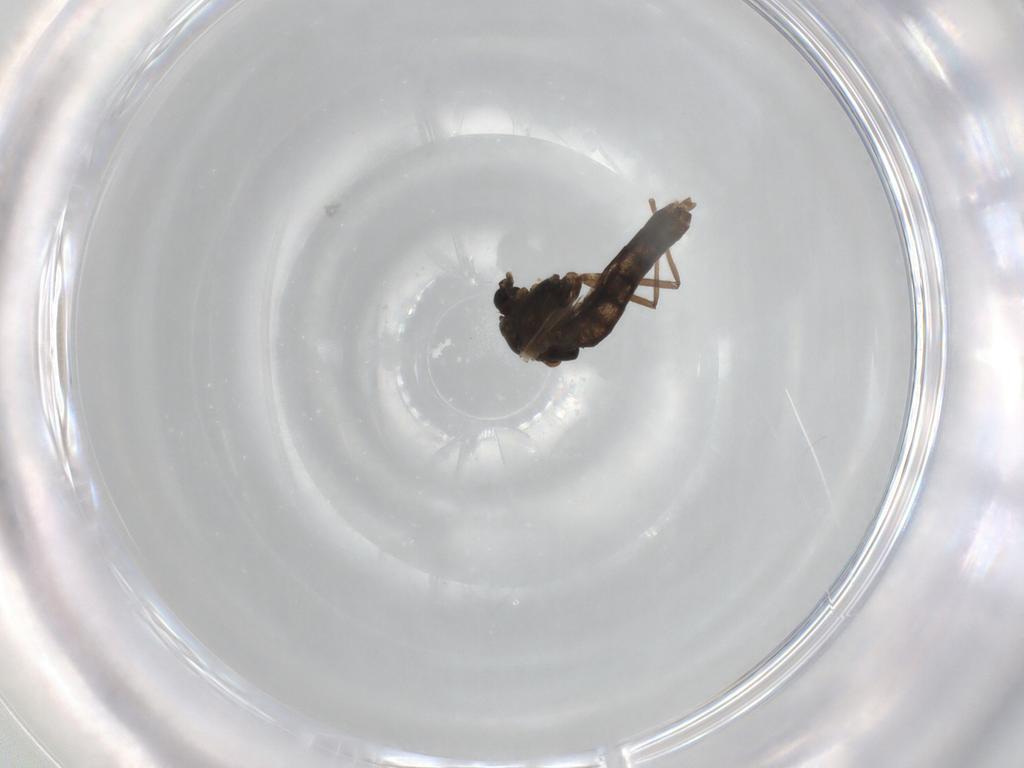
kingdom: Animalia
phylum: Arthropoda
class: Insecta
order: Diptera
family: Chironomidae
